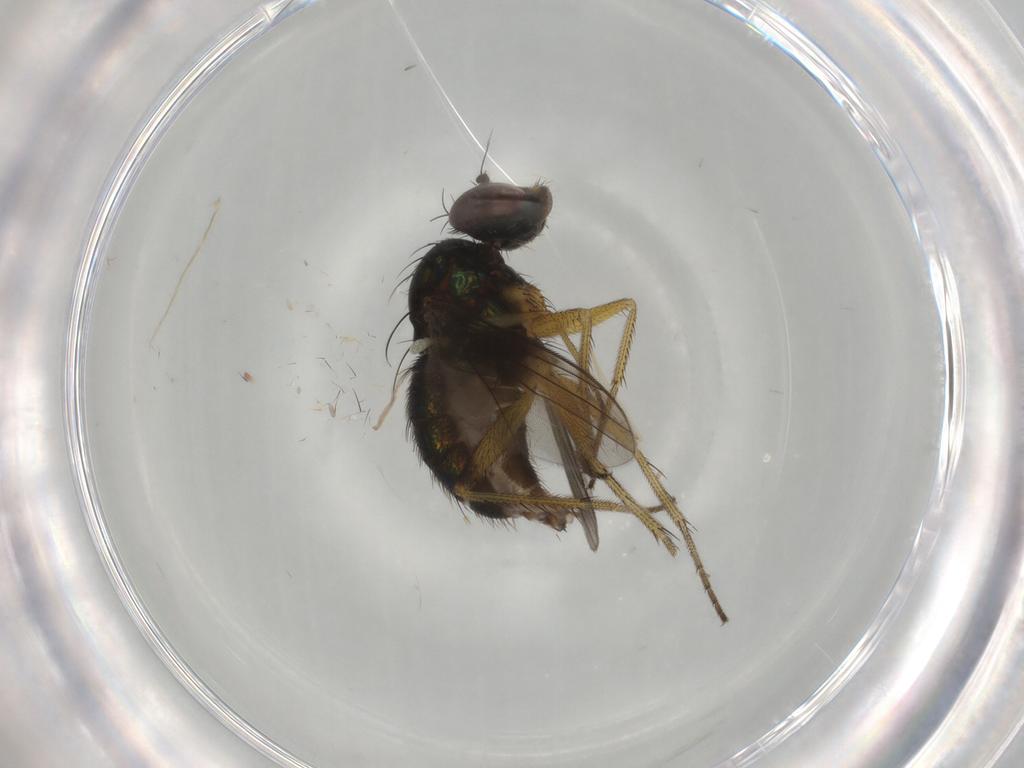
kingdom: Animalia
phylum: Arthropoda
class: Insecta
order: Diptera
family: Dolichopodidae
